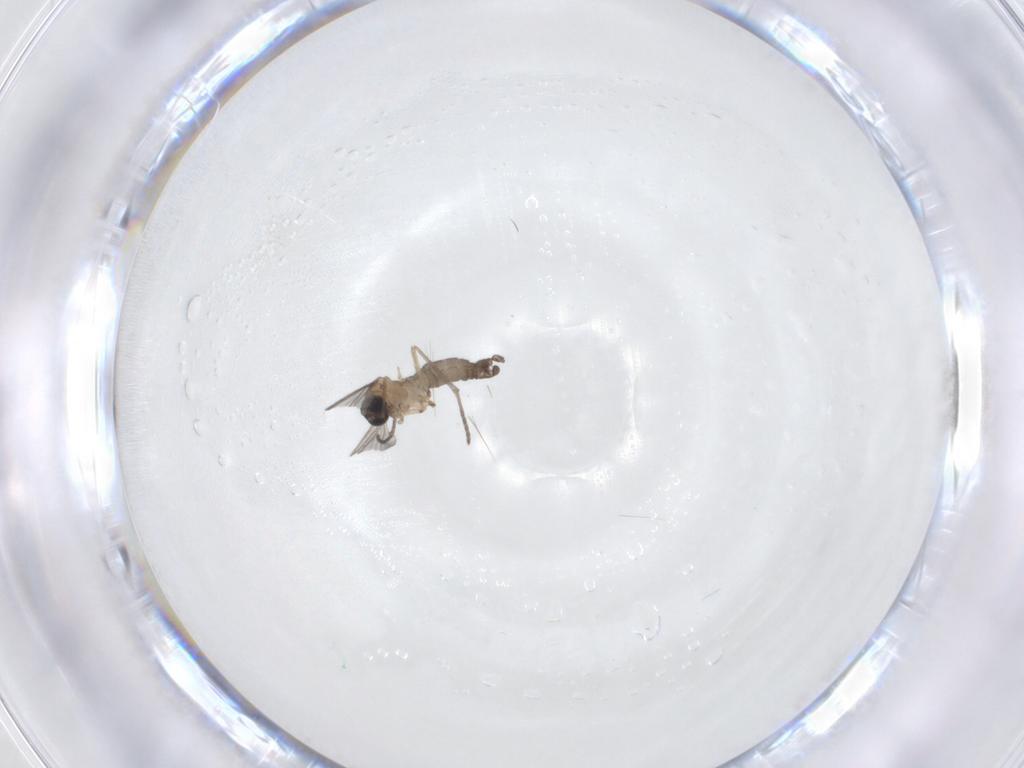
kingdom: Animalia
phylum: Arthropoda
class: Insecta
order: Diptera
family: Sciaridae
